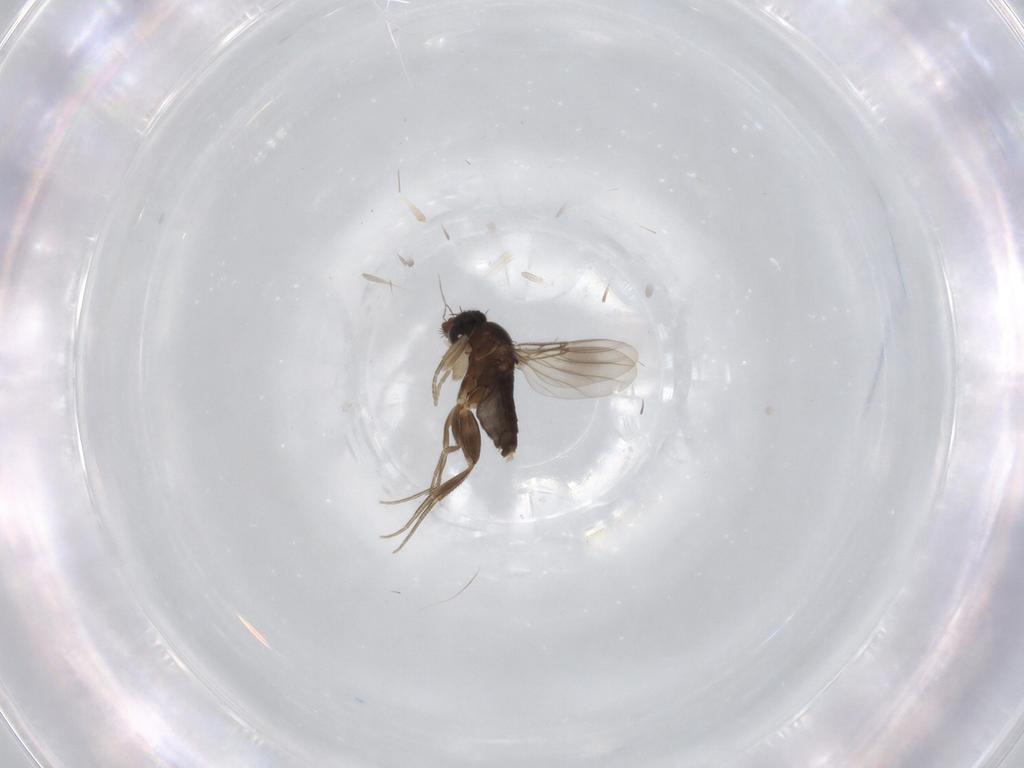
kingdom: Animalia
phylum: Arthropoda
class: Insecta
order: Diptera
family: Phoridae
